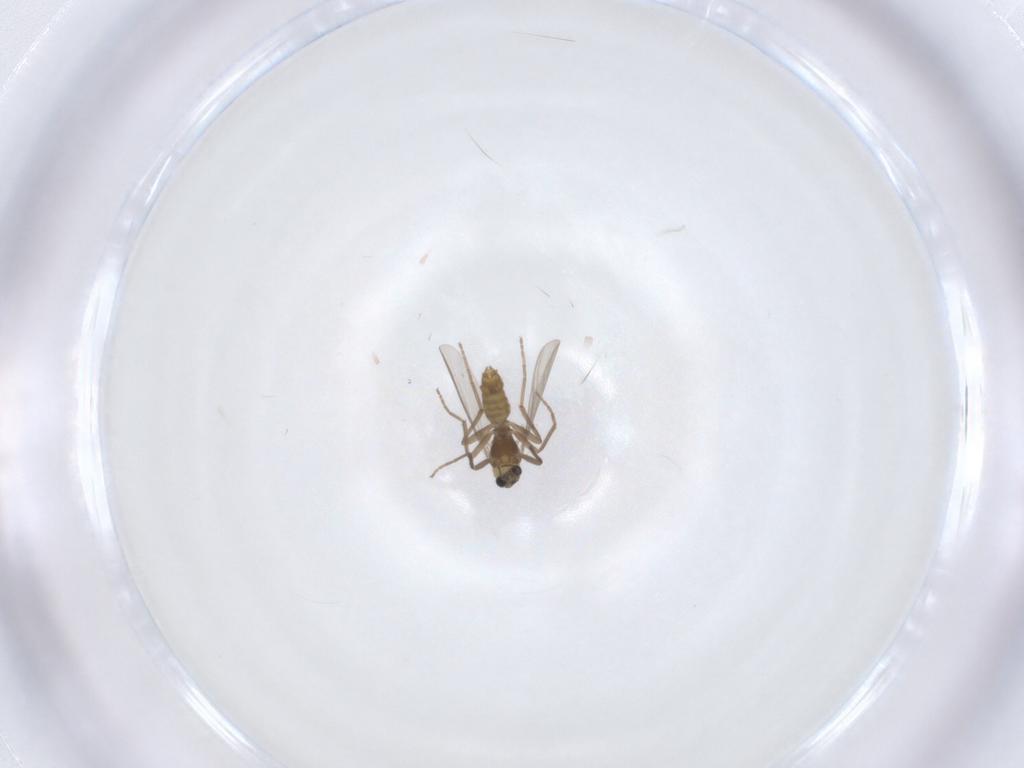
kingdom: Animalia
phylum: Arthropoda
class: Insecta
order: Diptera
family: Chironomidae
